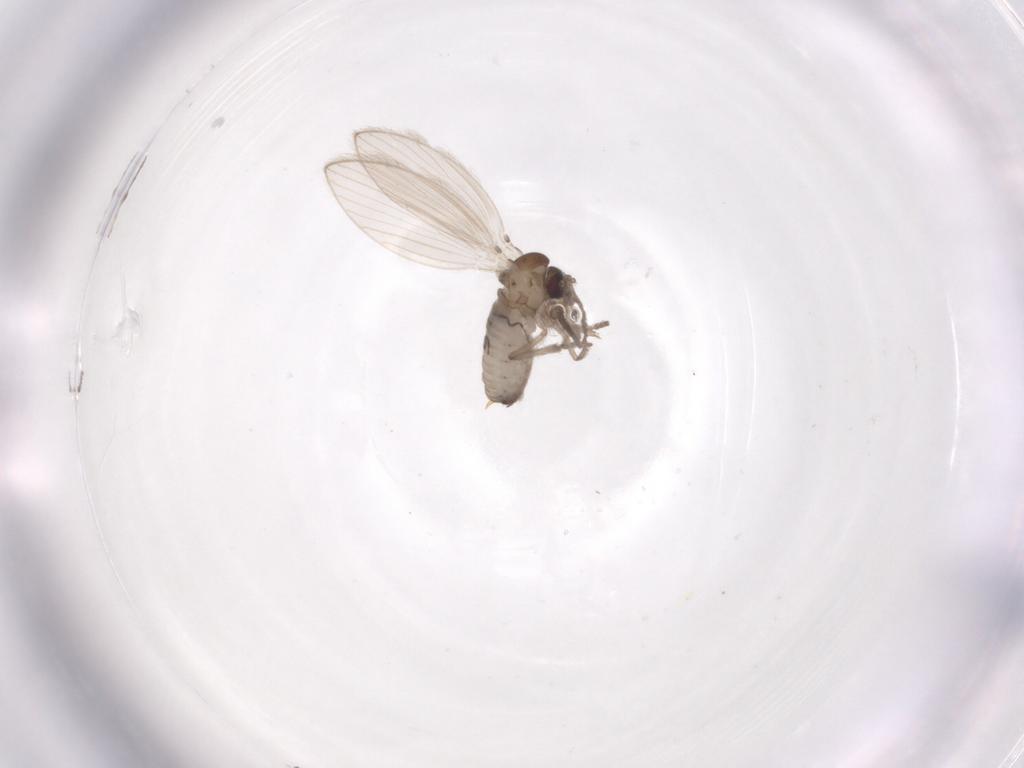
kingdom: Animalia
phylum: Arthropoda
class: Insecta
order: Diptera
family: Psychodidae
